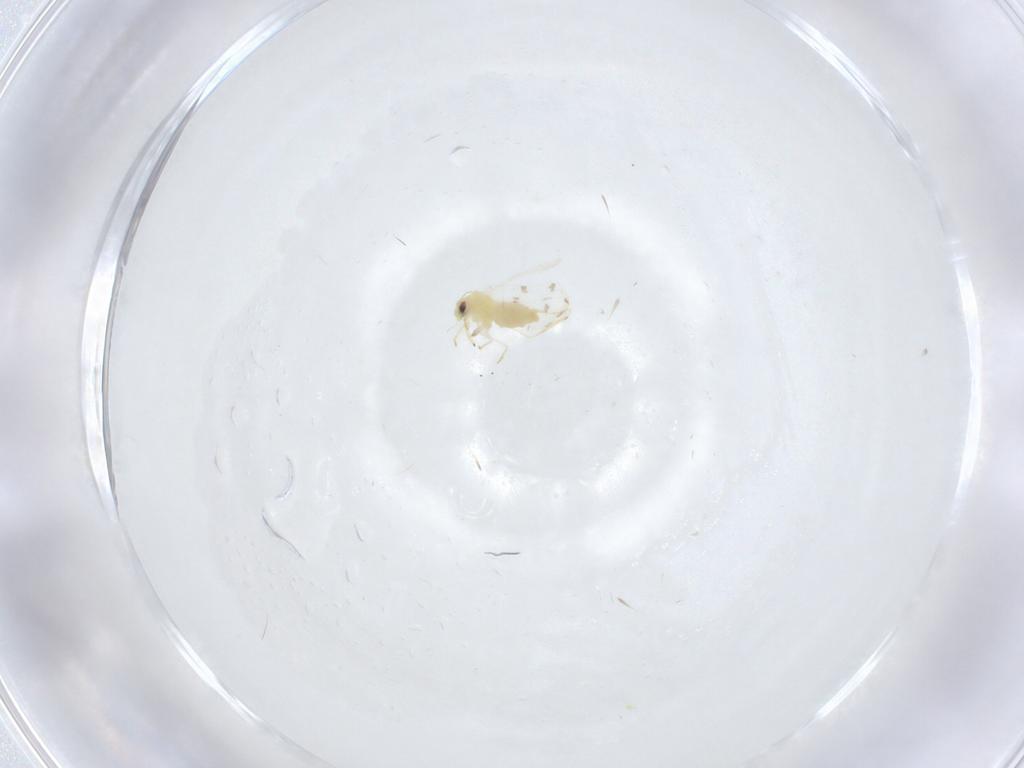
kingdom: Animalia
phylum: Arthropoda
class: Insecta
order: Hemiptera
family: Aleyrodidae
